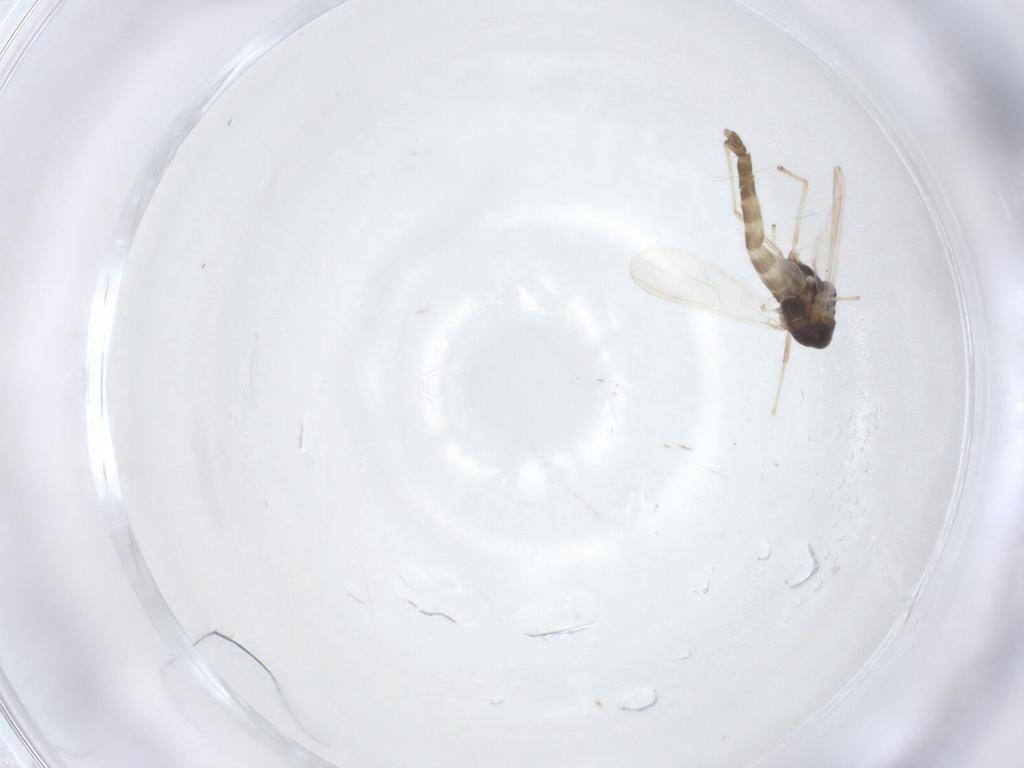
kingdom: Animalia
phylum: Arthropoda
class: Insecta
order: Diptera
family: Chironomidae
